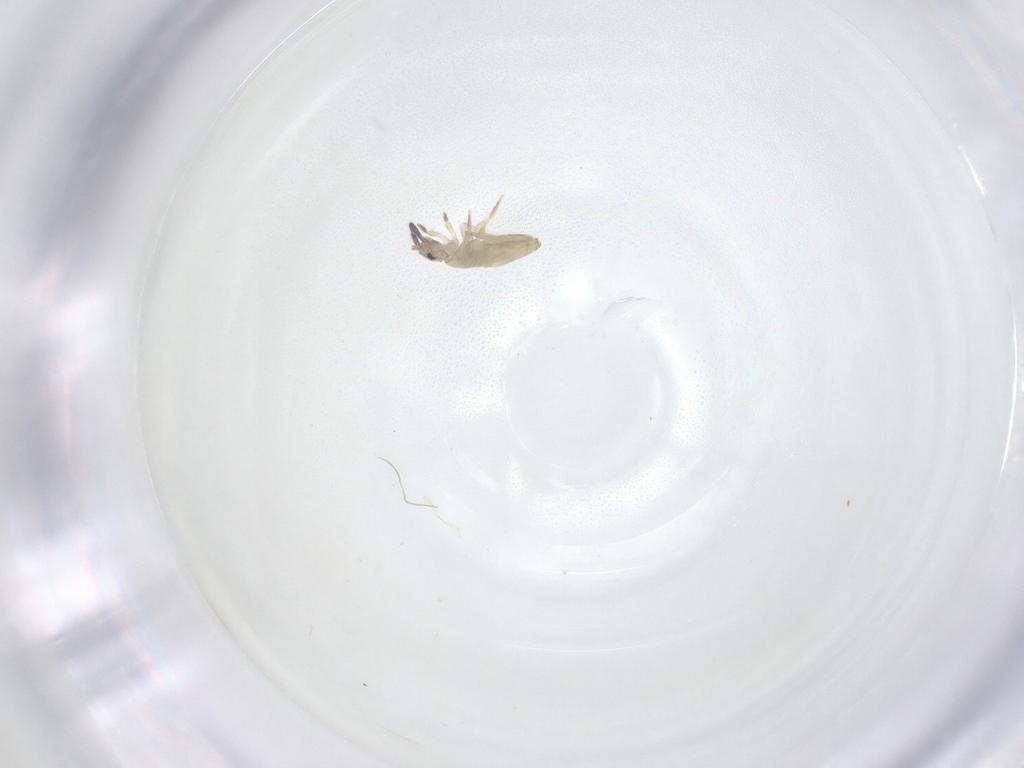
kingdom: Animalia
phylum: Arthropoda
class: Collembola
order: Entomobryomorpha
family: Entomobryidae
